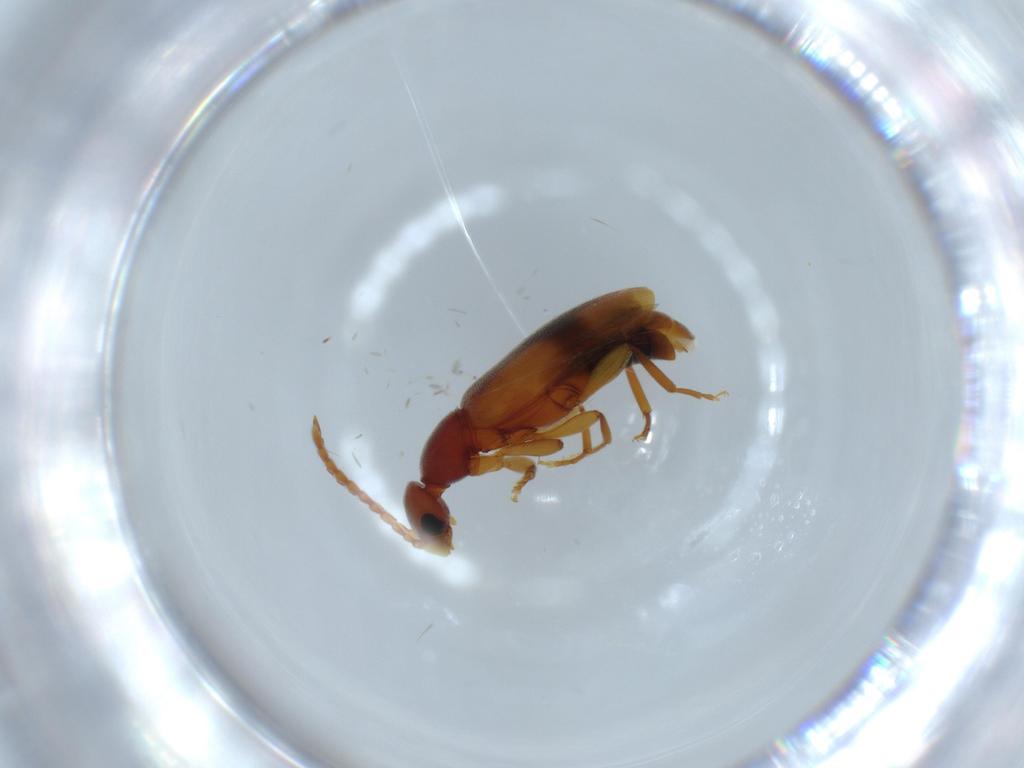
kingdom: Animalia
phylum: Arthropoda
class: Insecta
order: Coleoptera
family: Anthicidae
